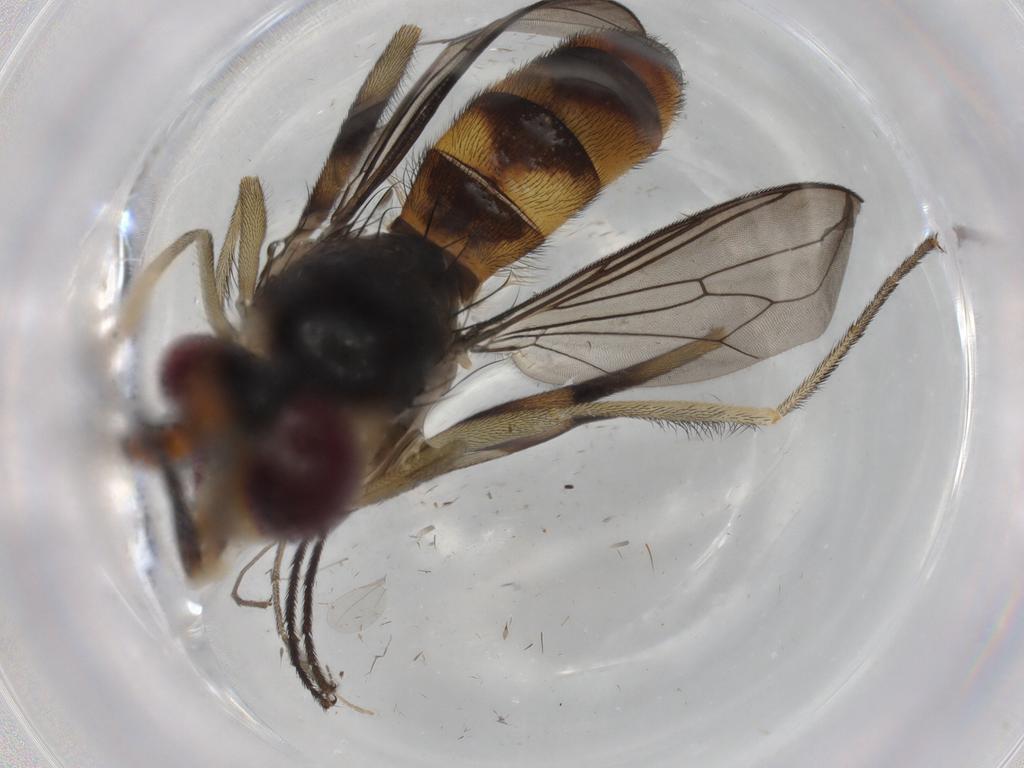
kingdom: Animalia
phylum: Arthropoda
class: Insecta
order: Diptera
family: Conopidae
